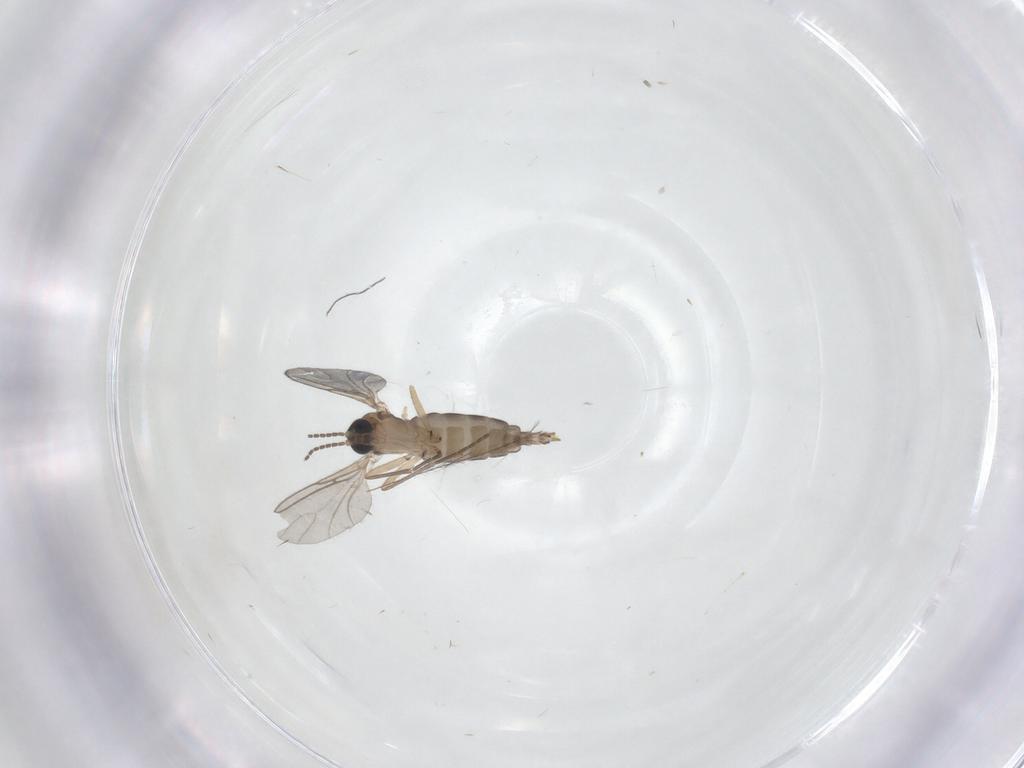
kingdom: Animalia
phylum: Arthropoda
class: Insecta
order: Diptera
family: Sciaridae
